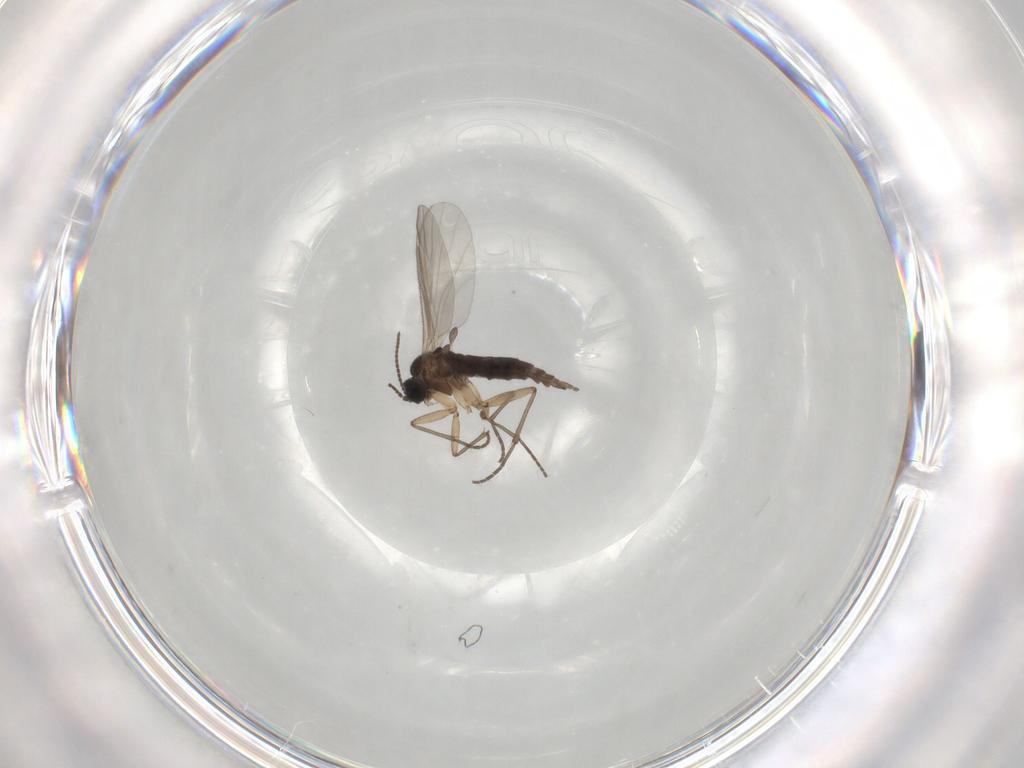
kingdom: Animalia
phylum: Arthropoda
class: Insecta
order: Diptera
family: Sciaridae
